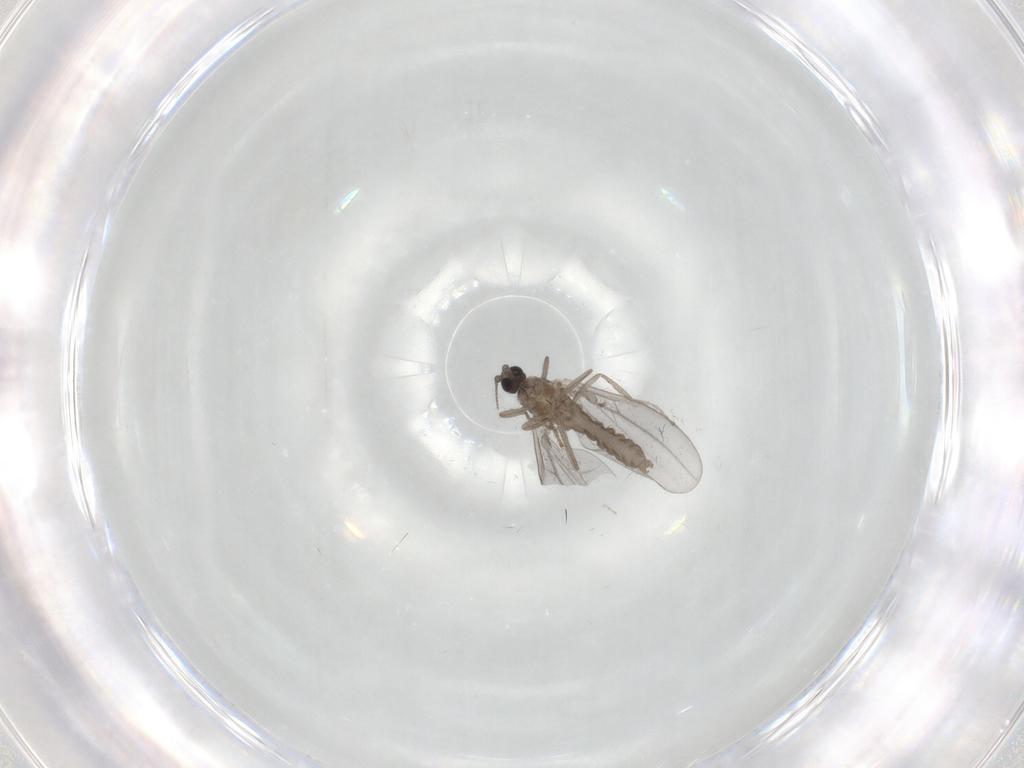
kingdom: Animalia
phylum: Arthropoda
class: Insecta
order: Diptera
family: Cecidomyiidae
